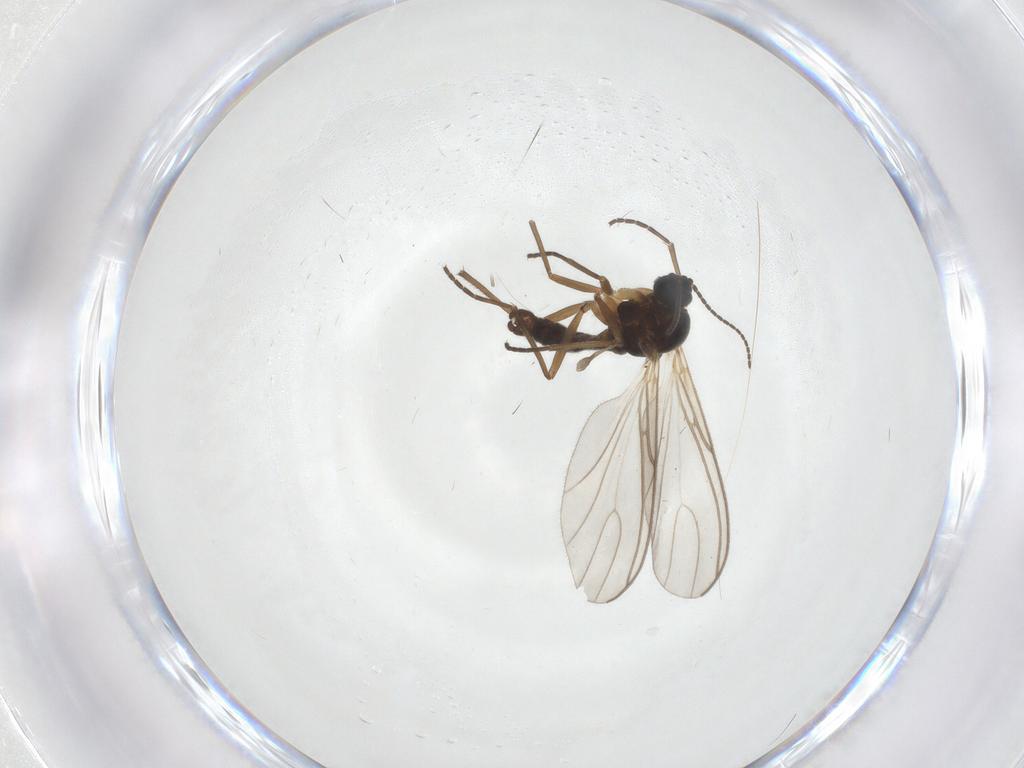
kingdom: Animalia
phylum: Arthropoda
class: Insecta
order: Diptera
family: Sciaridae
